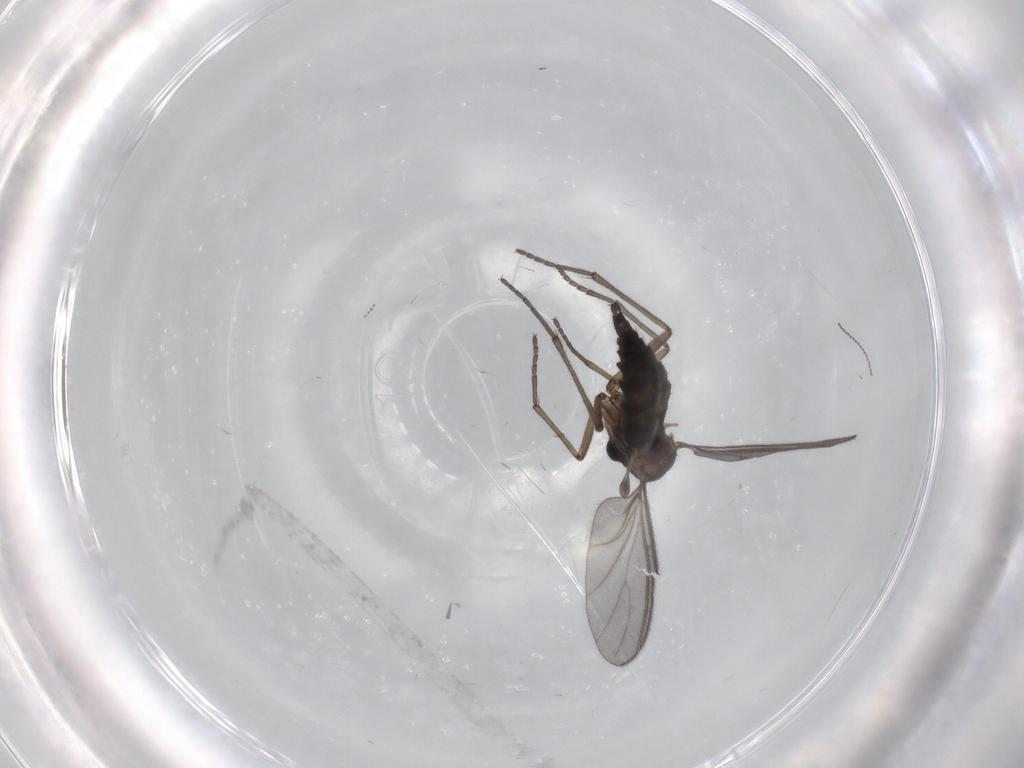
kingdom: Animalia
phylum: Arthropoda
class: Insecta
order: Diptera
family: Sciaridae
